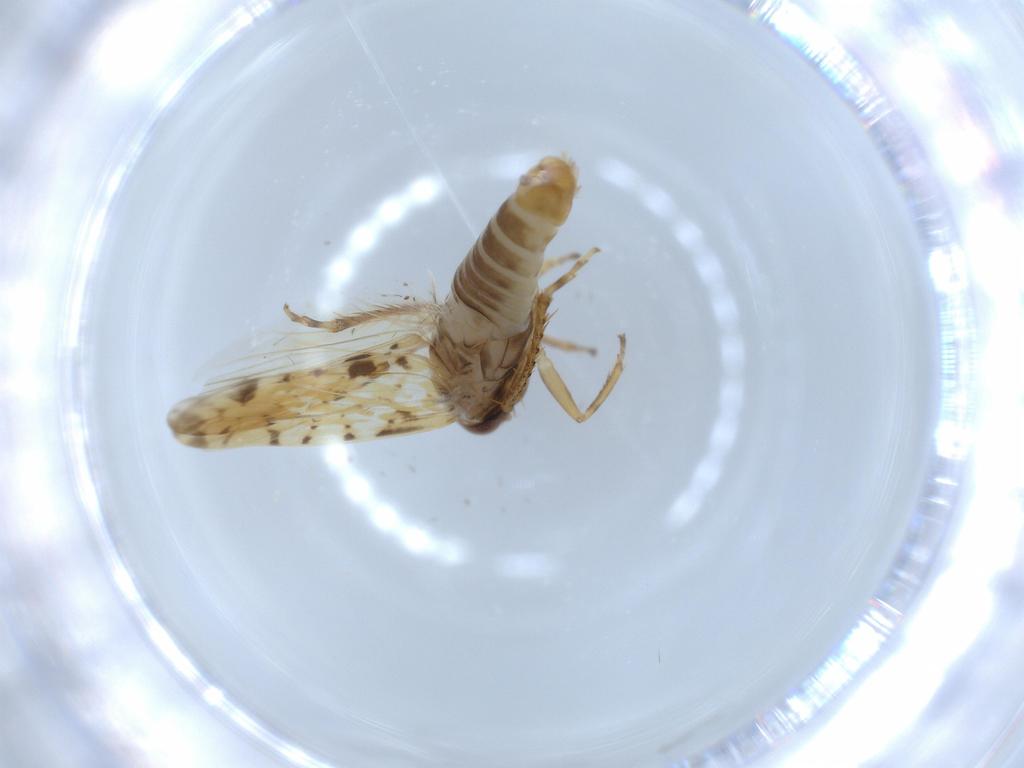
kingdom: Animalia
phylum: Arthropoda
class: Insecta
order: Hemiptera
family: Cicadellidae
